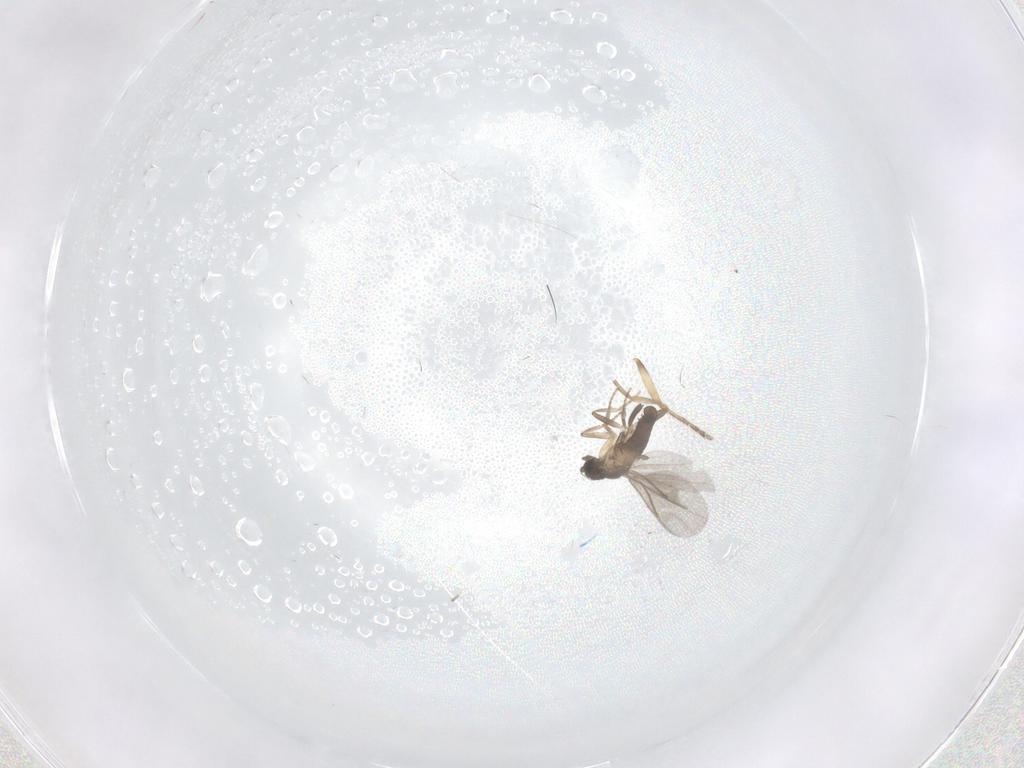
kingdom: Animalia
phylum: Arthropoda
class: Insecta
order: Diptera
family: Ceratopogonidae
